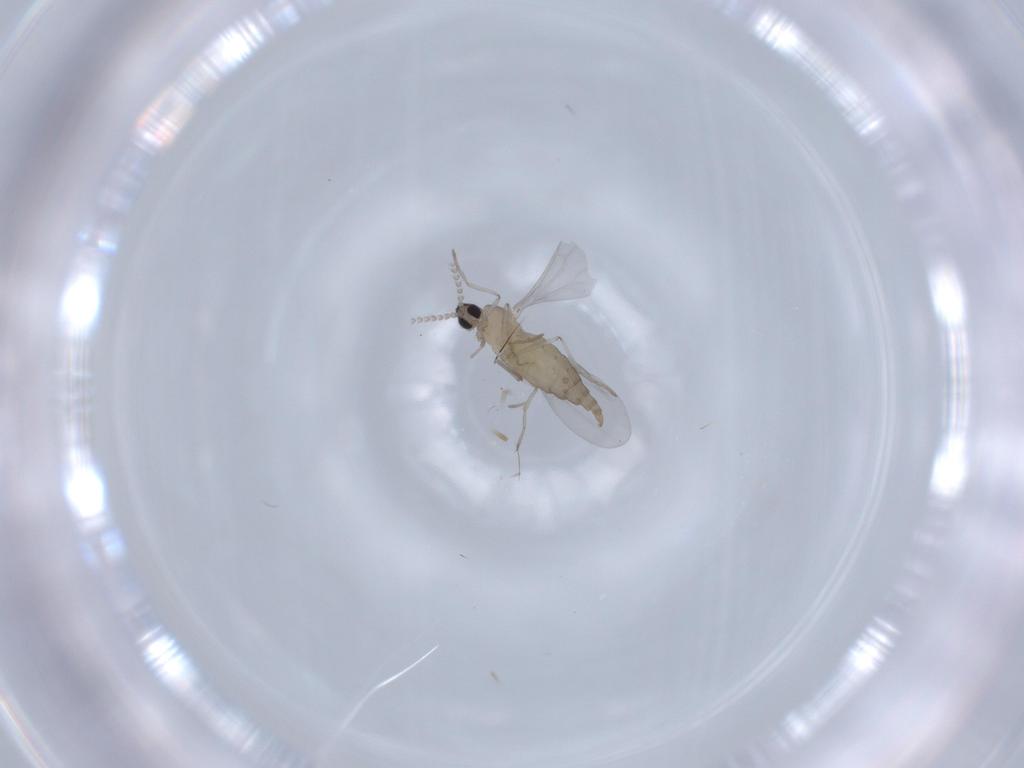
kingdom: Animalia
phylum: Arthropoda
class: Insecta
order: Diptera
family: Cecidomyiidae
